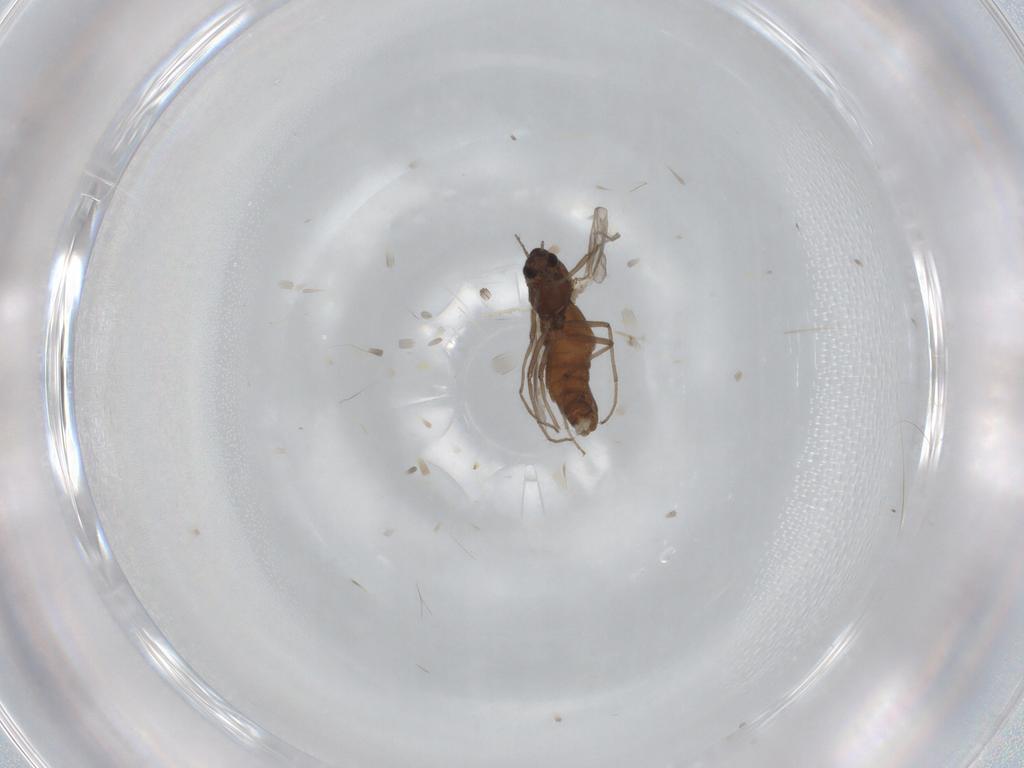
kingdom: Animalia
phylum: Arthropoda
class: Insecta
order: Diptera
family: Chironomidae
